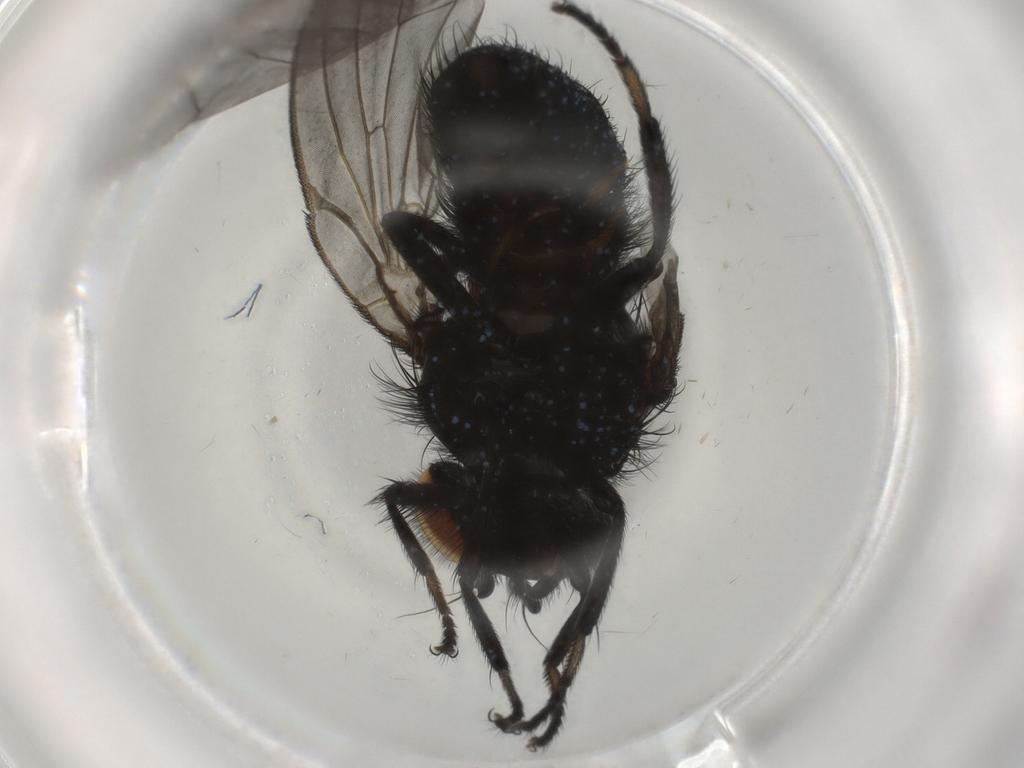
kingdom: Animalia
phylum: Arthropoda
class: Insecta
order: Diptera
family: Lonchaeidae
